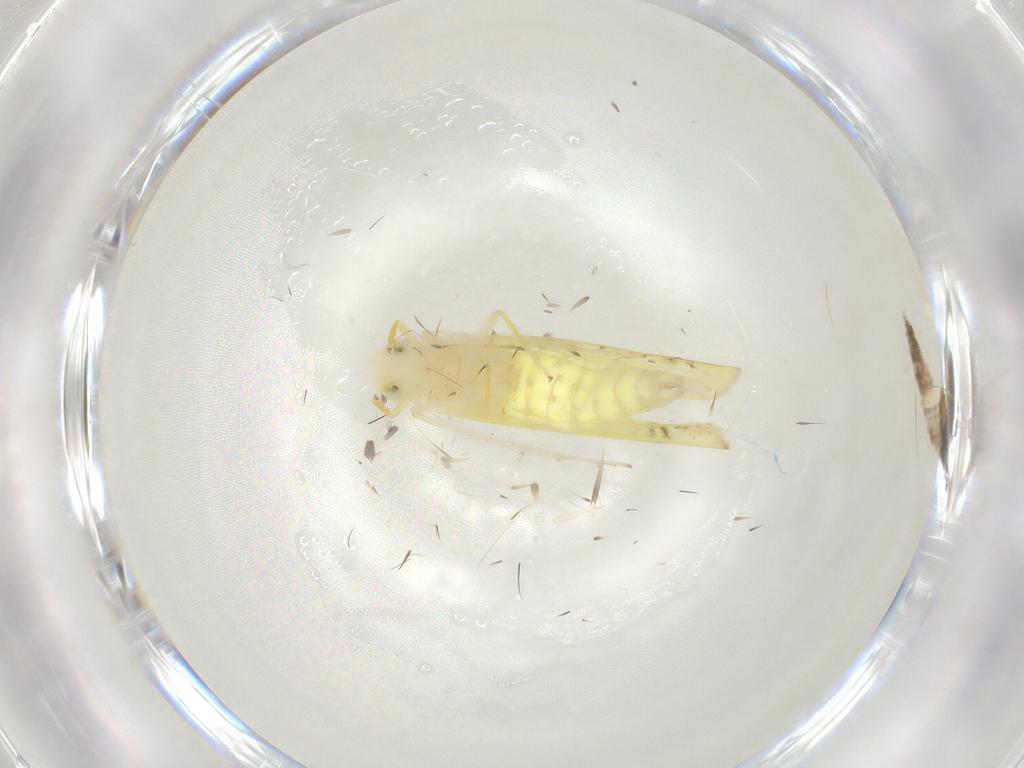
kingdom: Animalia
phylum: Arthropoda
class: Insecta
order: Hemiptera
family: Cicadellidae
